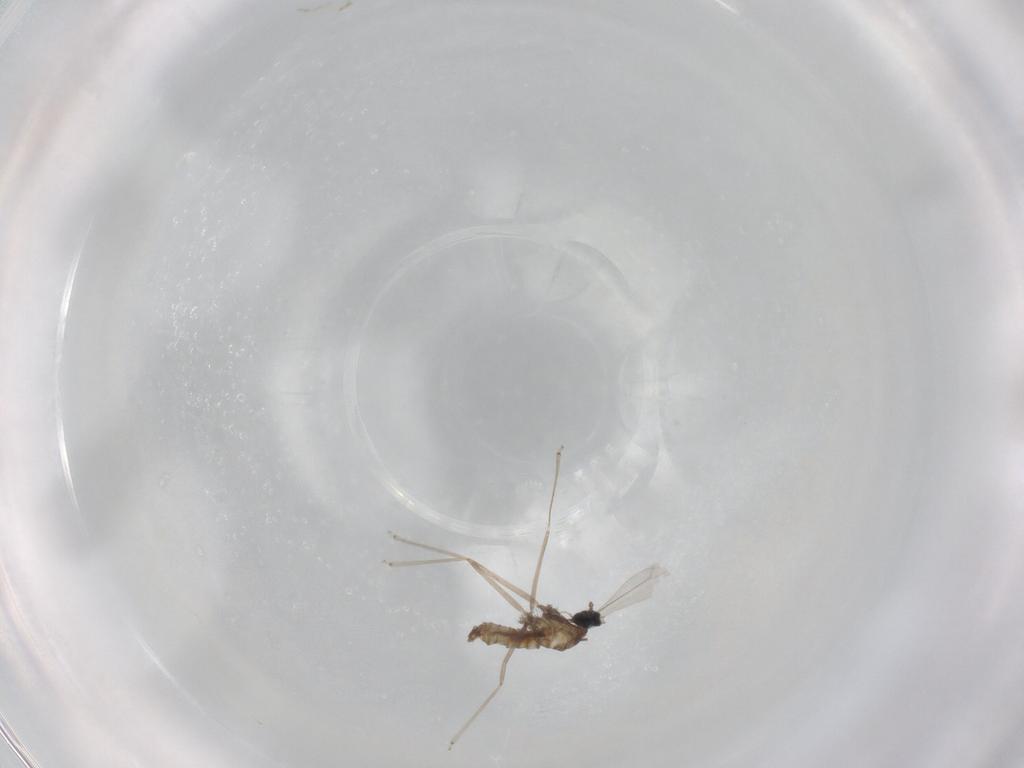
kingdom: Animalia
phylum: Arthropoda
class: Insecta
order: Diptera
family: Cecidomyiidae
